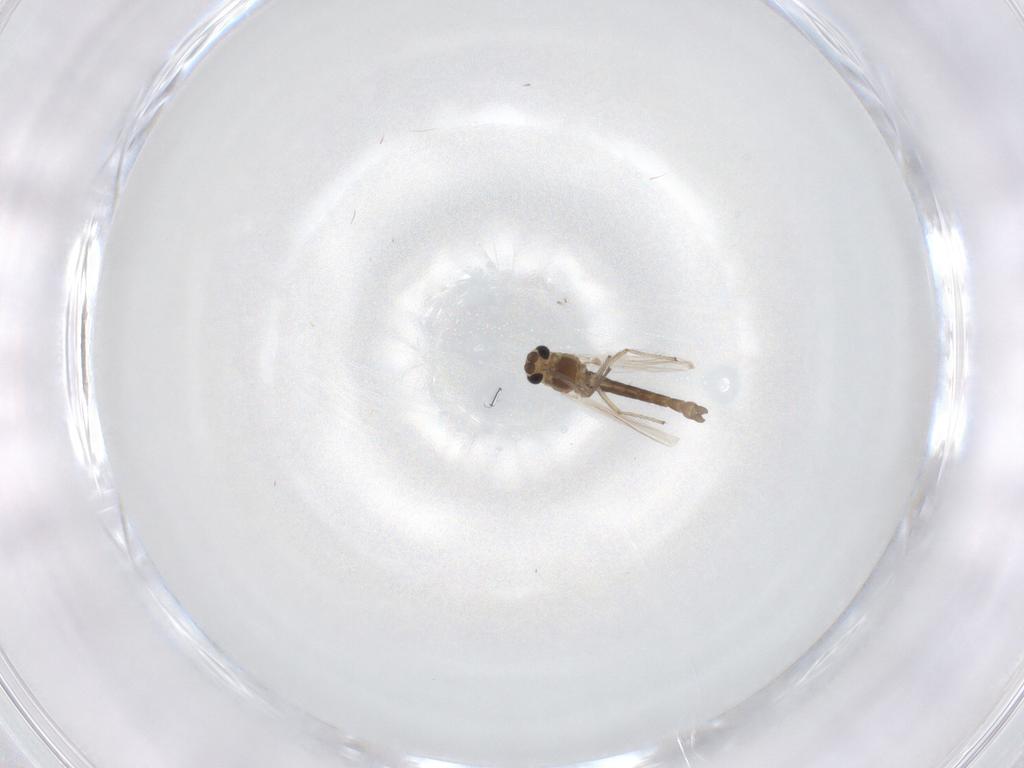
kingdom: Animalia
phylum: Arthropoda
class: Insecta
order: Diptera
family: Chironomidae
